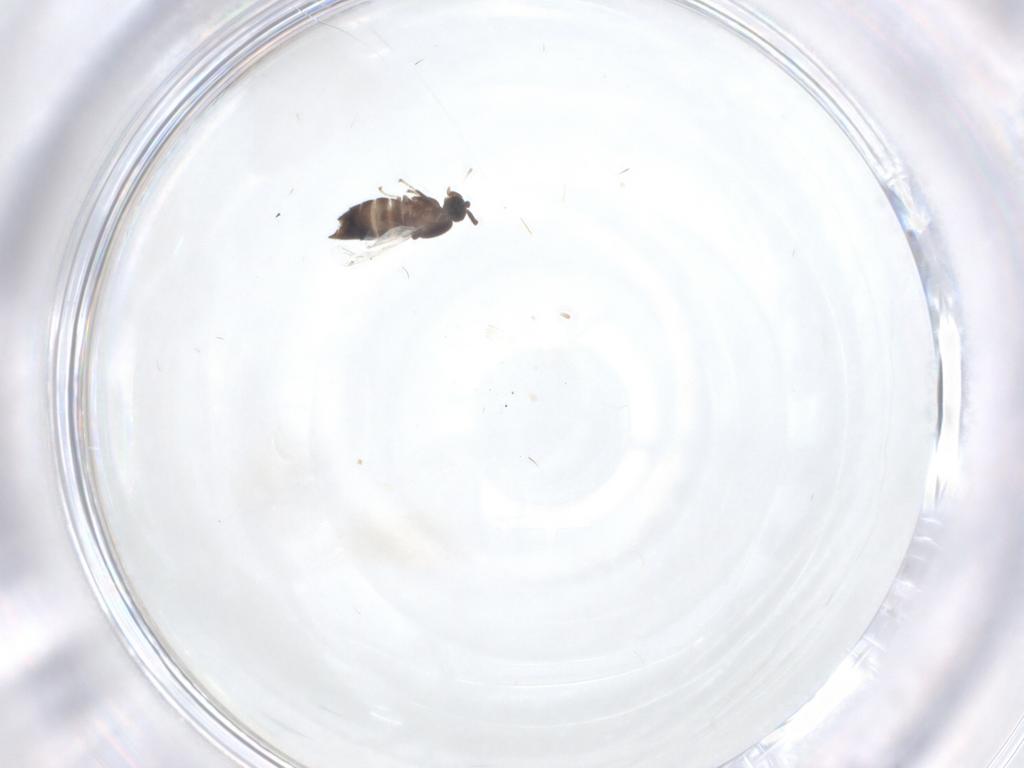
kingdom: Animalia
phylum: Arthropoda
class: Insecta
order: Diptera
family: Scatopsidae
